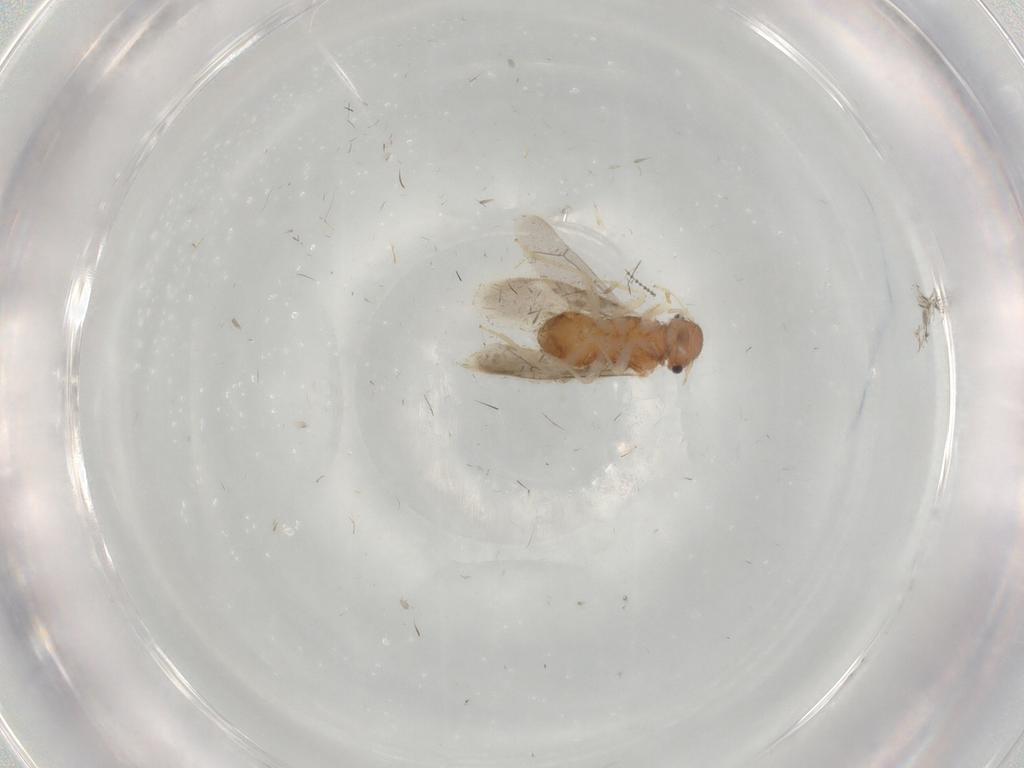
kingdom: Animalia
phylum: Arthropoda
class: Insecta
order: Psocodea
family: Archipsocidae
